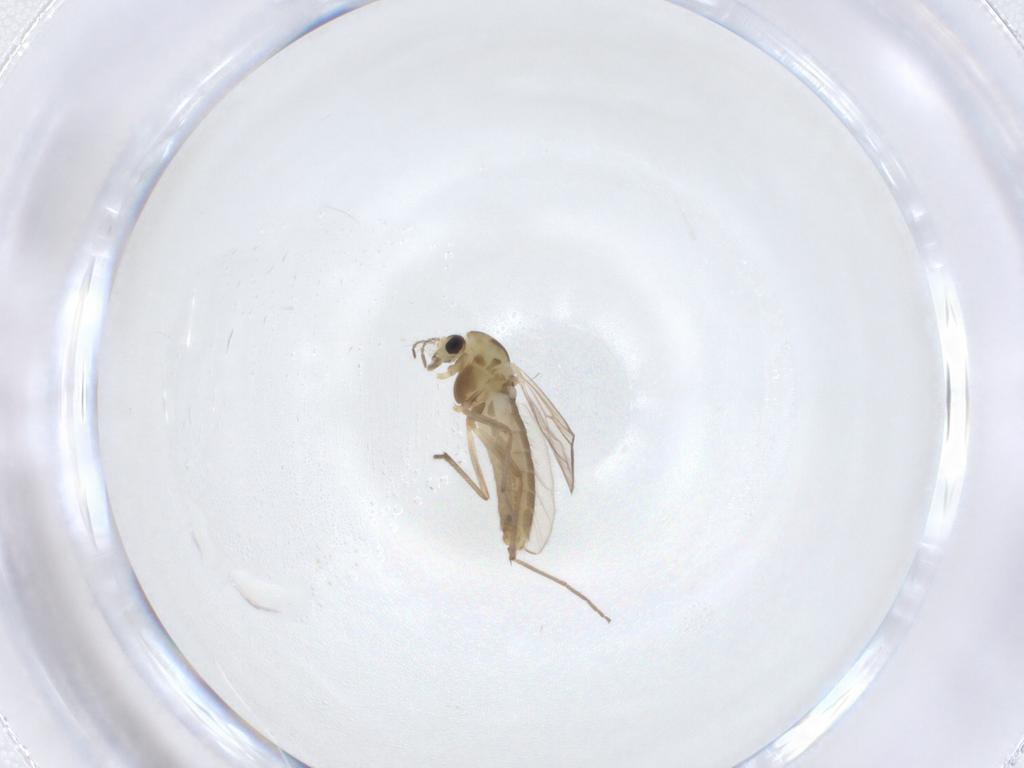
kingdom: Animalia
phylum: Arthropoda
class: Insecta
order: Diptera
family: Chironomidae
